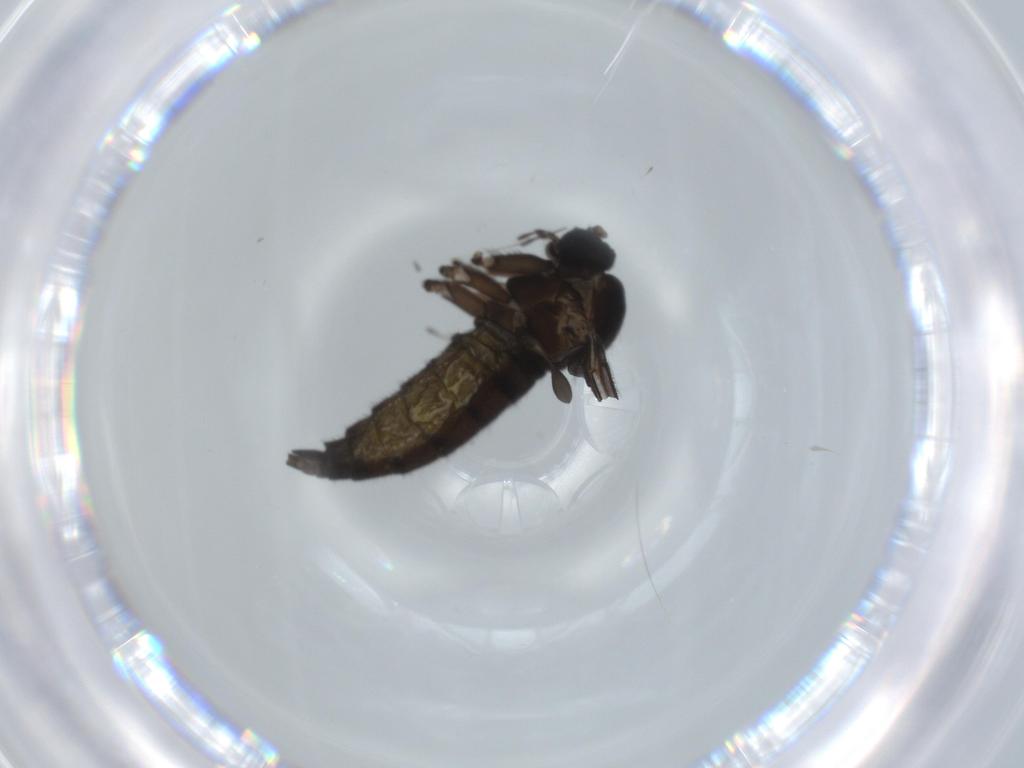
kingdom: Animalia
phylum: Arthropoda
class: Insecta
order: Diptera
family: Sciaridae
